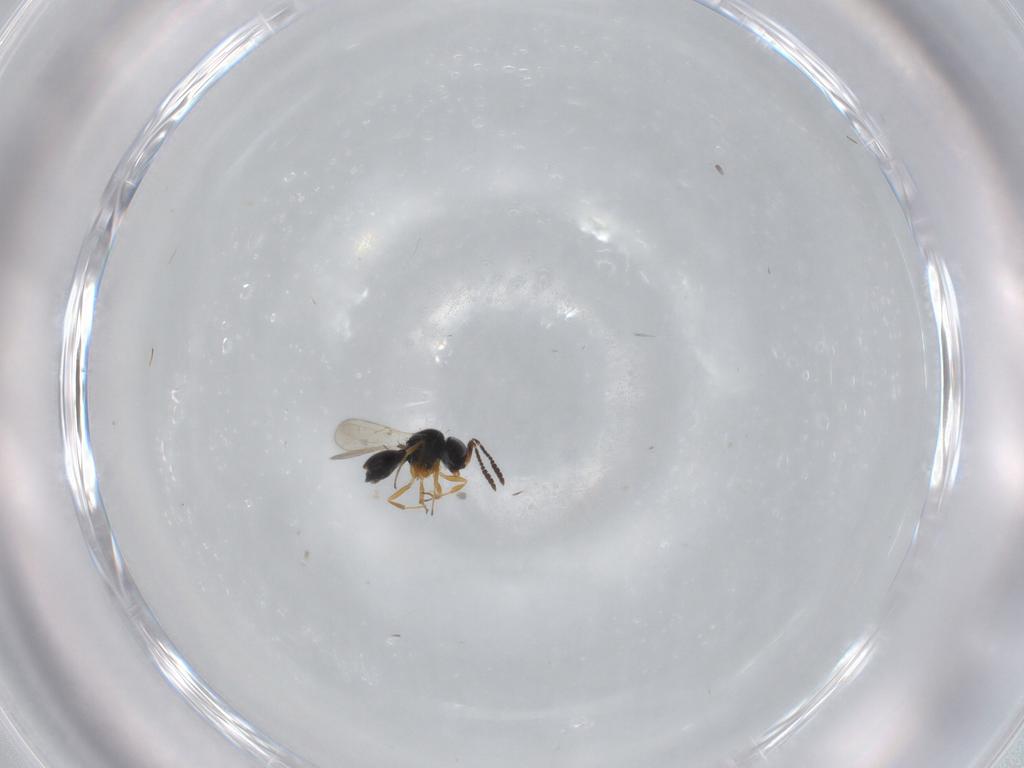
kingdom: Animalia
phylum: Arthropoda
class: Insecta
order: Hymenoptera
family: Scelionidae
